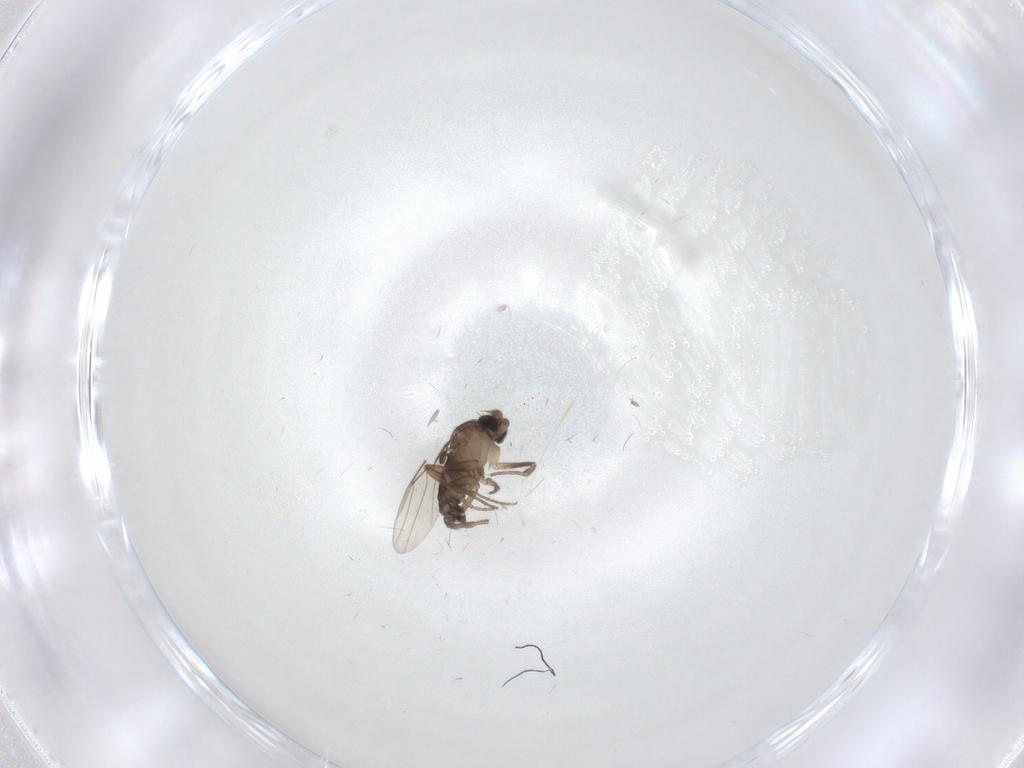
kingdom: Animalia
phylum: Arthropoda
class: Insecta
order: Diptera
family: Phoridae
